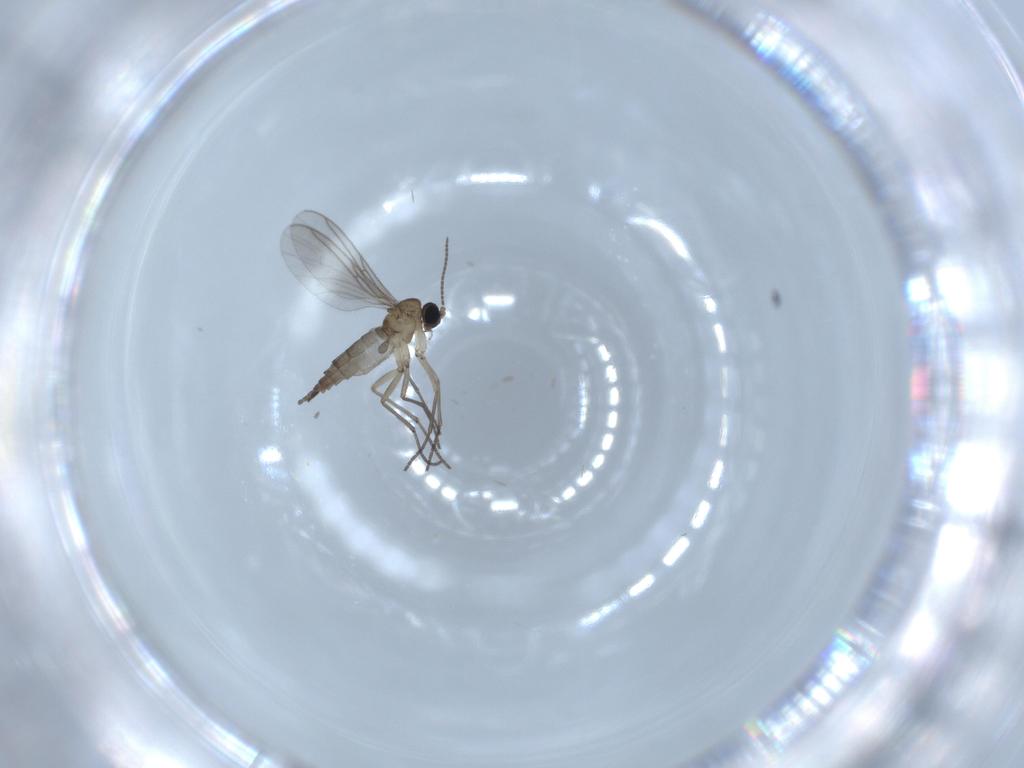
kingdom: Animalia
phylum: Arthropoda
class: Insecta
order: Diptera
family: Sciaridae
